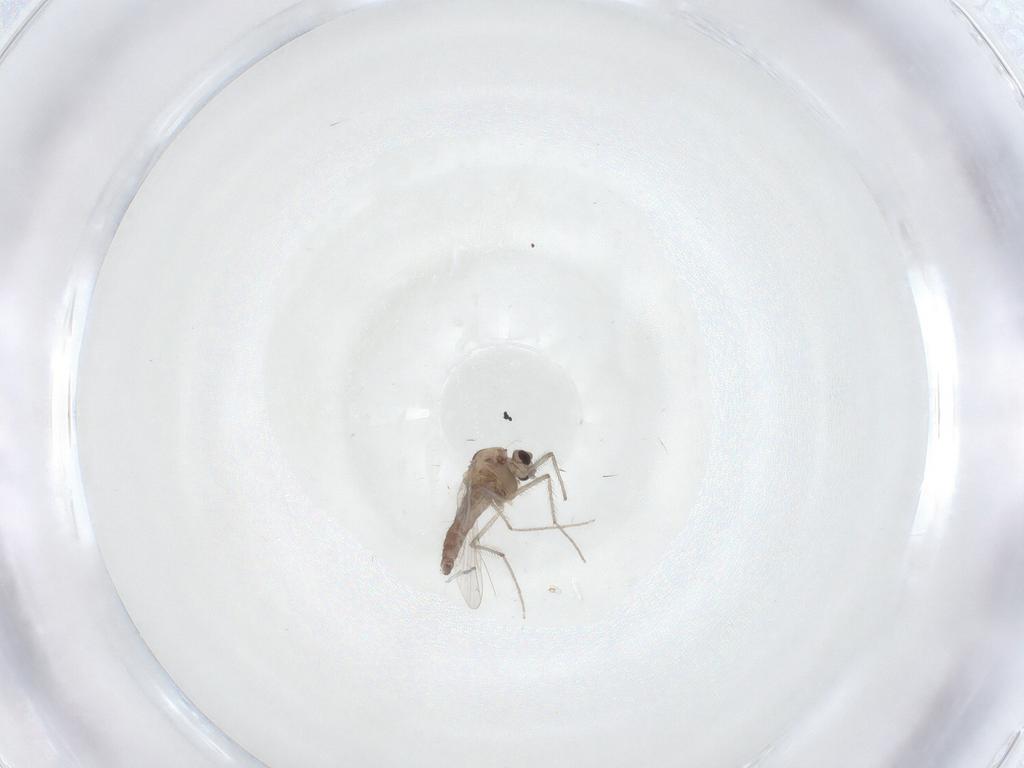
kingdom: Animalia
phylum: Arthropoda
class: Insecta
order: Diptera
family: Chironomidae
